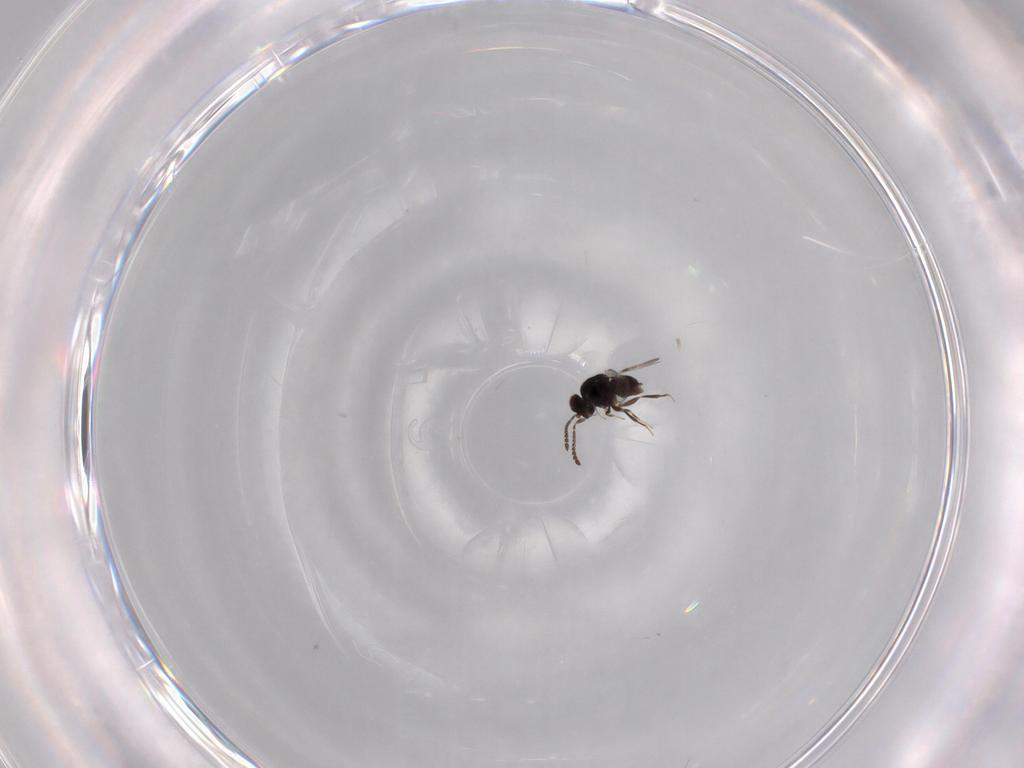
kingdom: Animalia
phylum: Arthropoda
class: Insecta
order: Hymenoptera
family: Ceraphronidae
